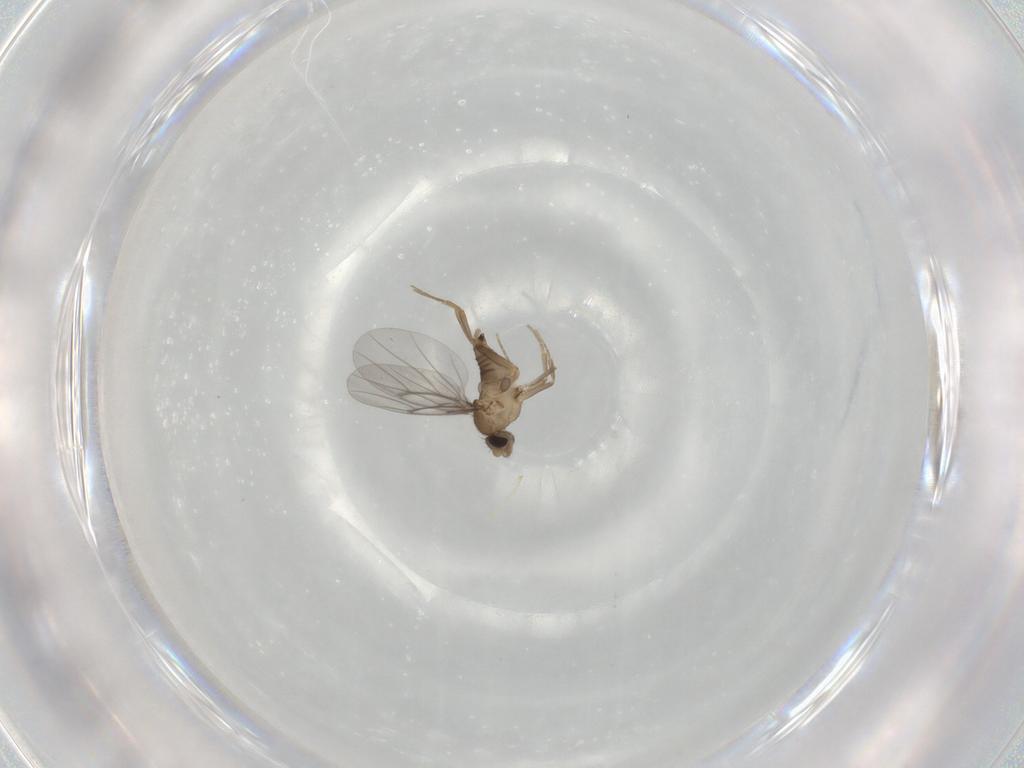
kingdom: Animalia
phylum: Arthropoda
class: Insecta
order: Diptera
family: Cecidomyiidae
